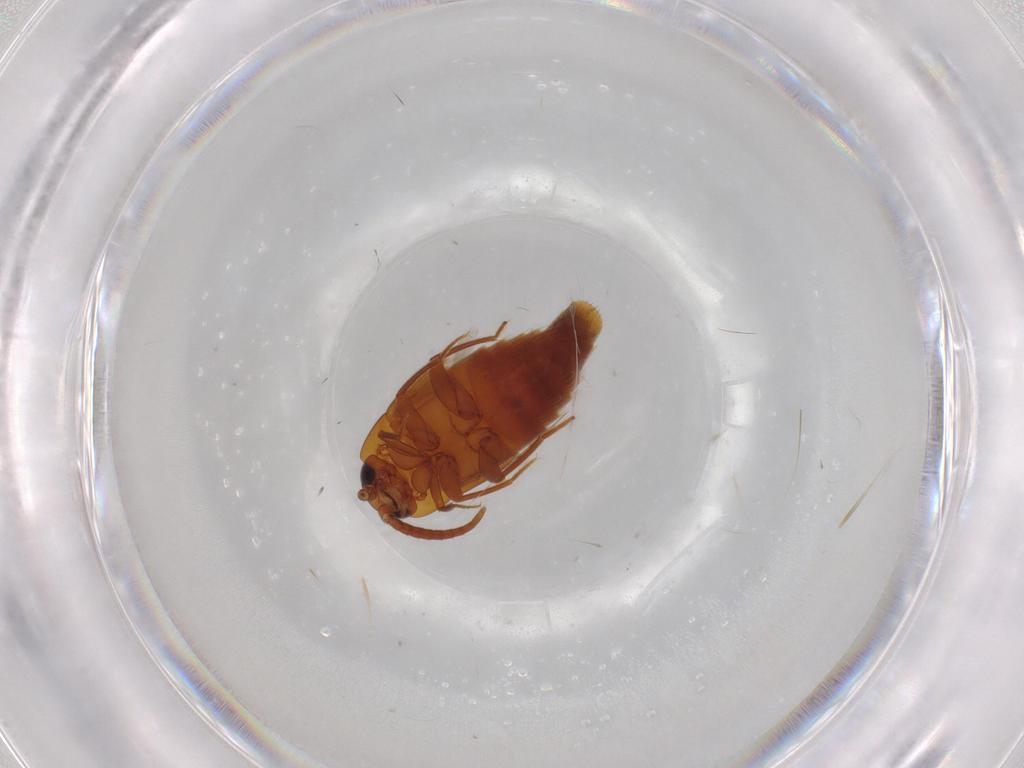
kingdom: Animalia
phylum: Arthropoda
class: Insecta
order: Coleoptera
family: Staphylinidae
